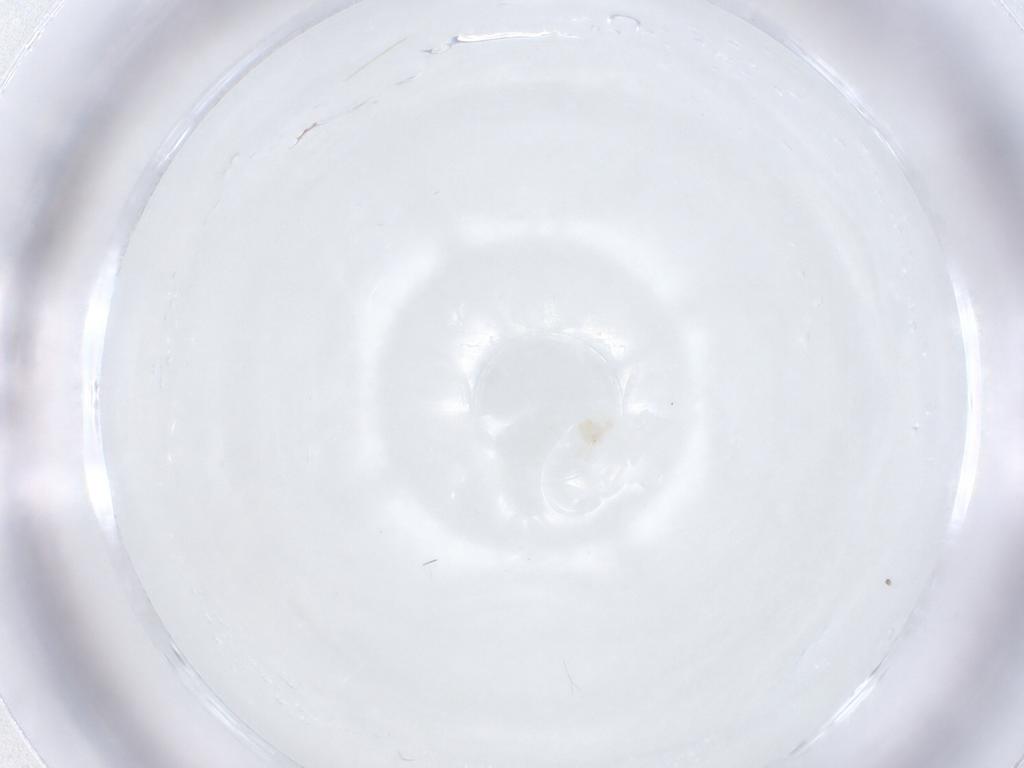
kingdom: Animalia
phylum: Arthropoda
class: Arachnida
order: Trombidiformes
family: Anystidae
